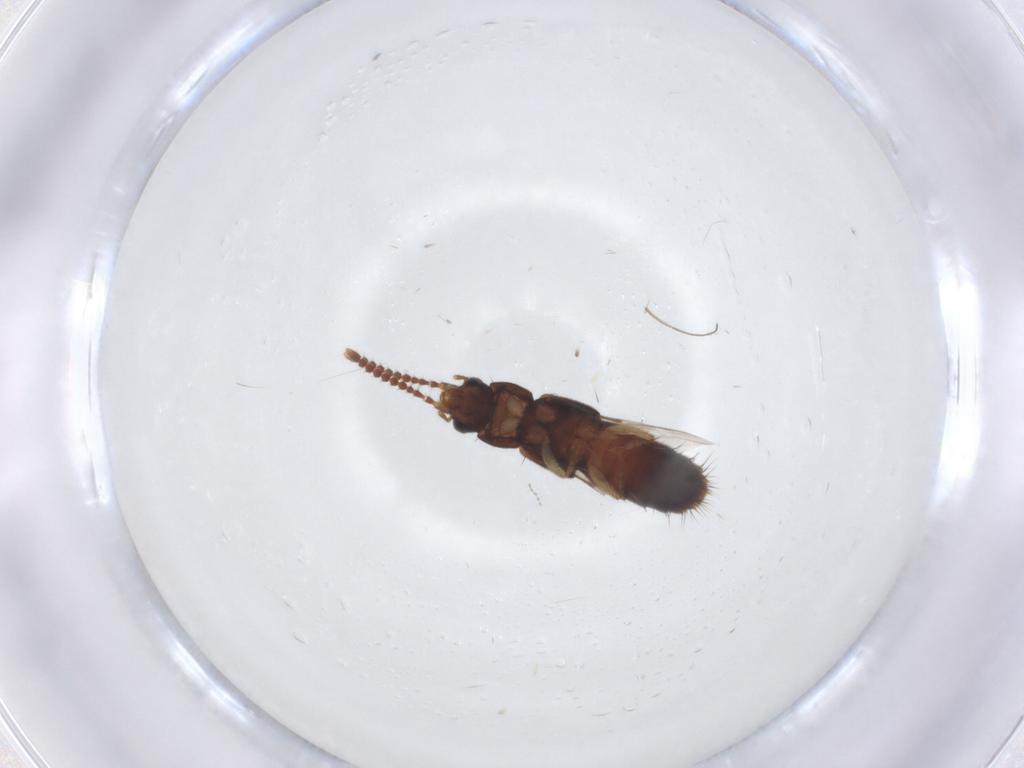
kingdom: Animalia
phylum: Arthropoda
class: Insecta
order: Coleoptera
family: Staphylinidae
